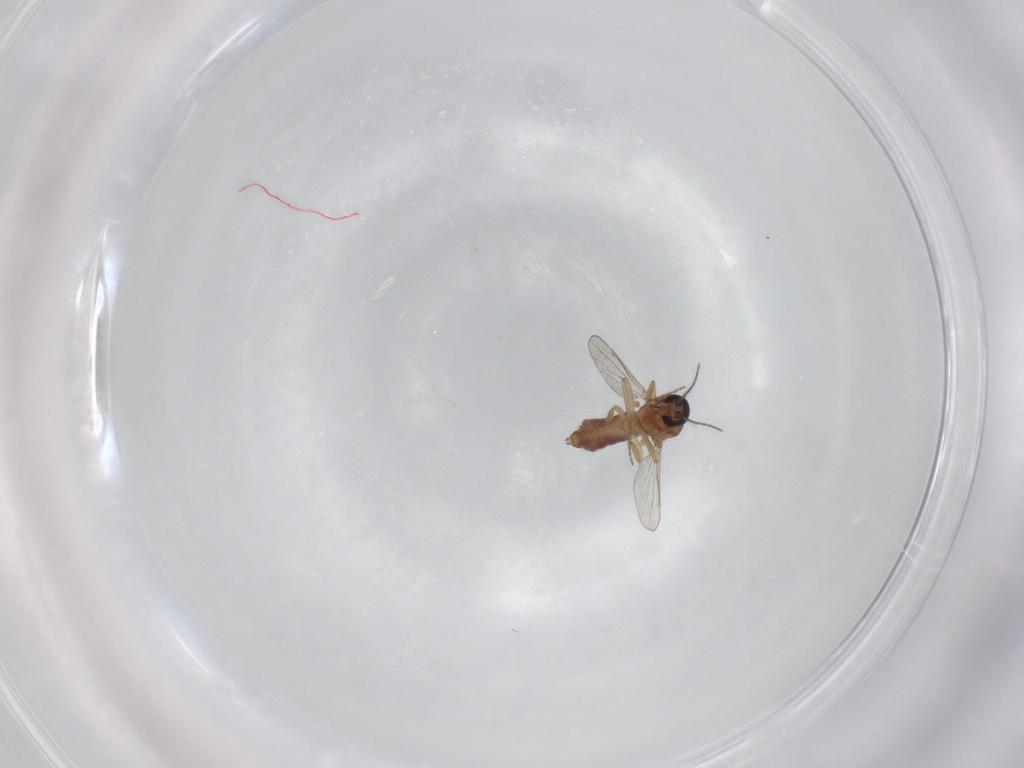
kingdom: Animalia
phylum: Arthropoda
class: Insecta
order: Diptera
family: Ceratopogonidae
